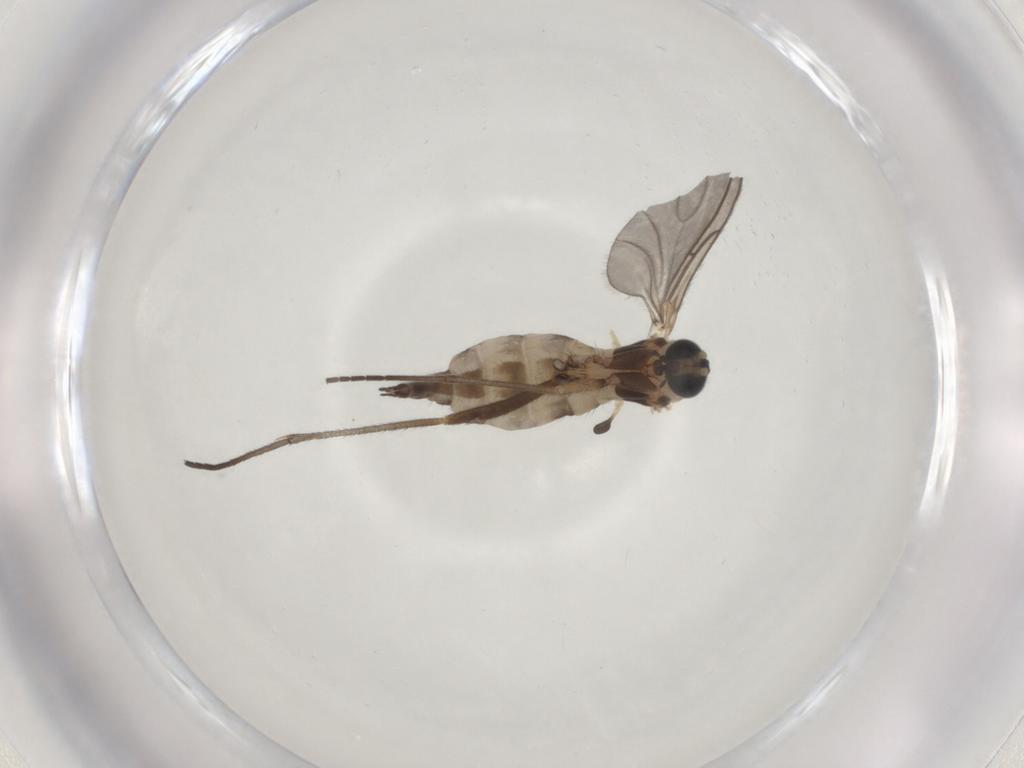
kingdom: Animalia
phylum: Arthropoda
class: Insecta
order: Diptera
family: Sciaridae
